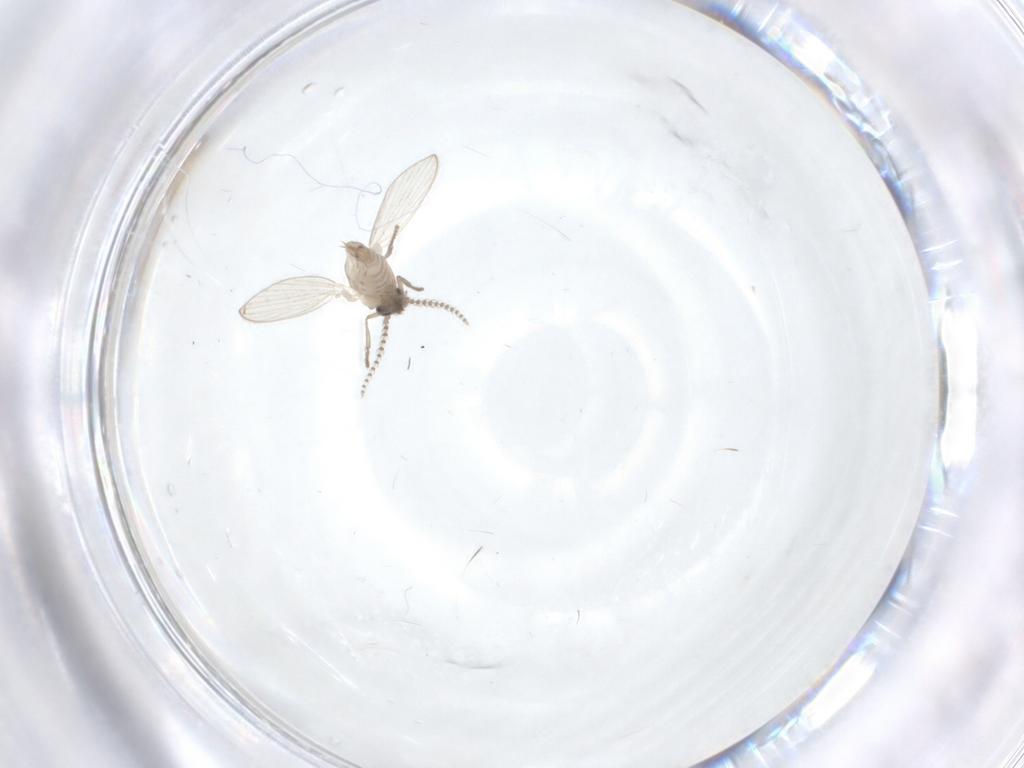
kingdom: Animalia
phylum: Arthropoda
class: Insecta
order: Diptera
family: Psychodidae
